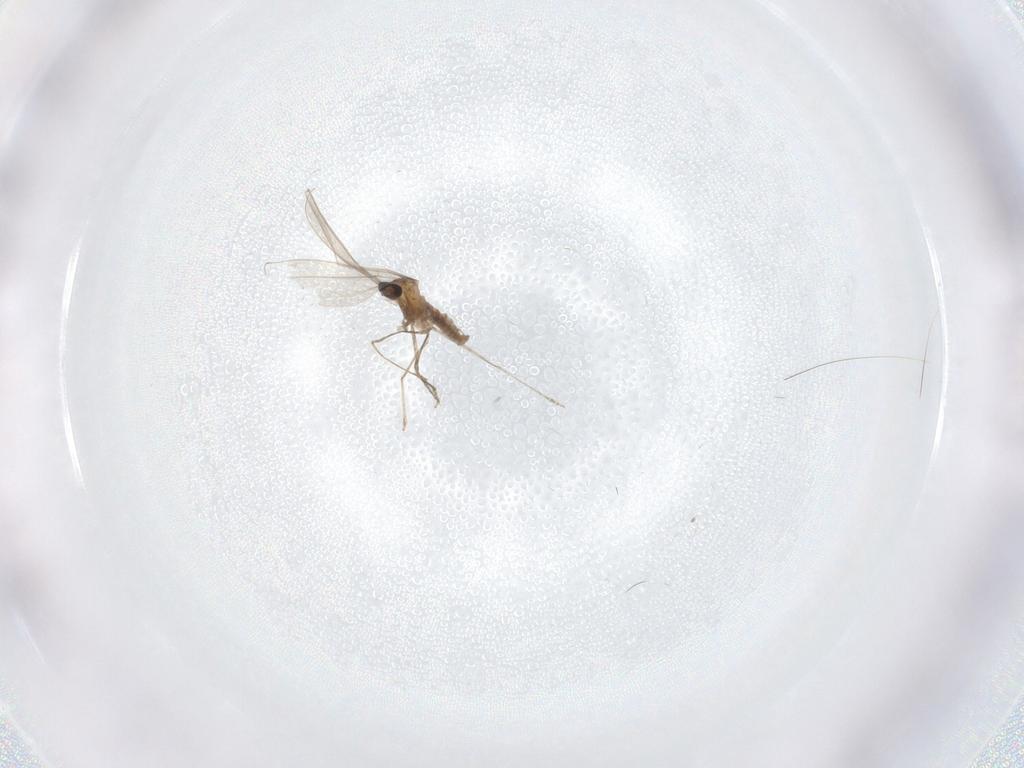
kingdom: Animalia
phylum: Arthropoda
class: Insecta
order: Diptera
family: Cecidomyiidae
